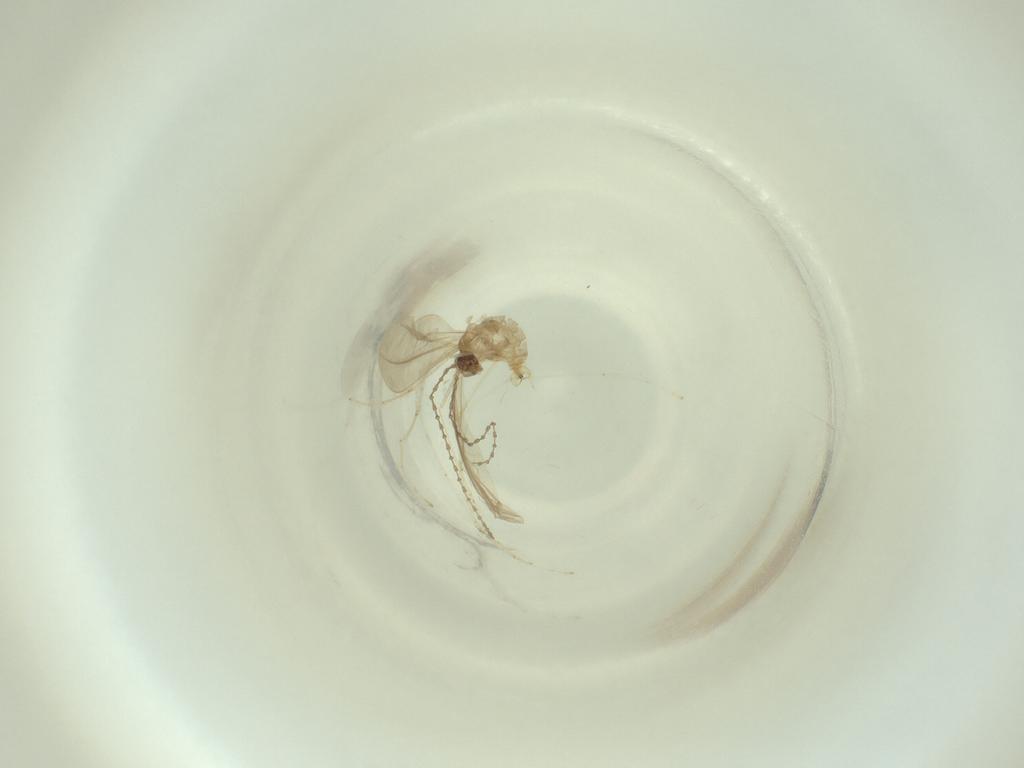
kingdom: Animalia
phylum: Arthropoda
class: Insecta
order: Diptera
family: Cecidomyiidae
